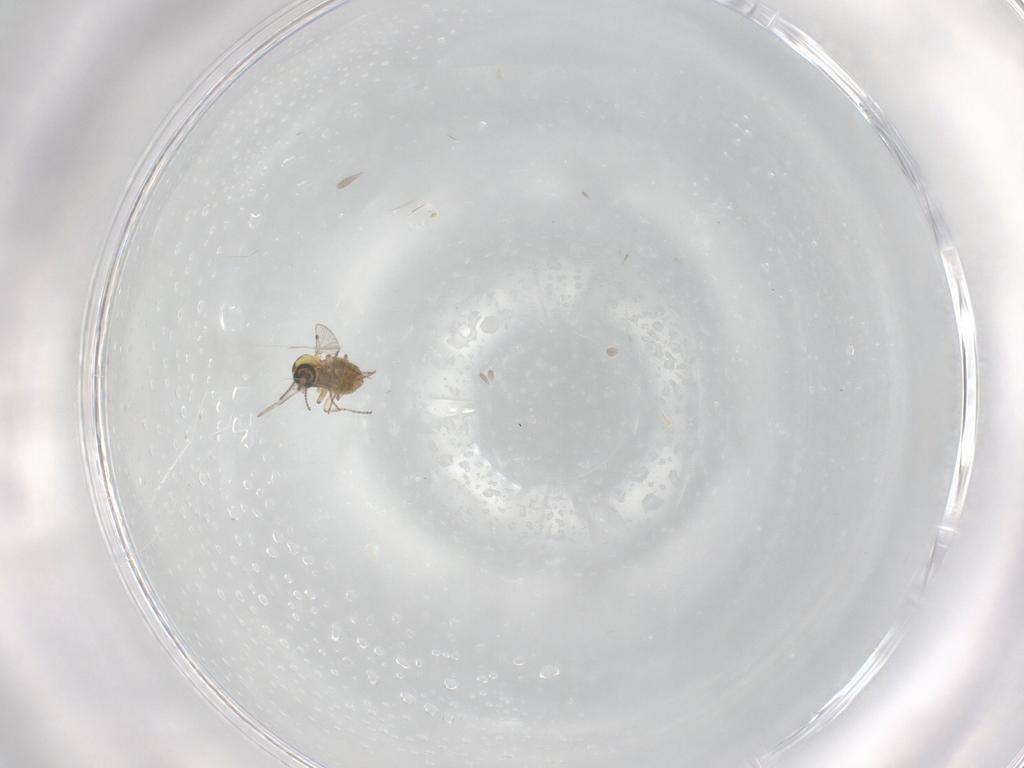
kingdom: Animalia
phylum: Arthropoda
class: Insecta
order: Diptera
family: Ceratopogonidae
